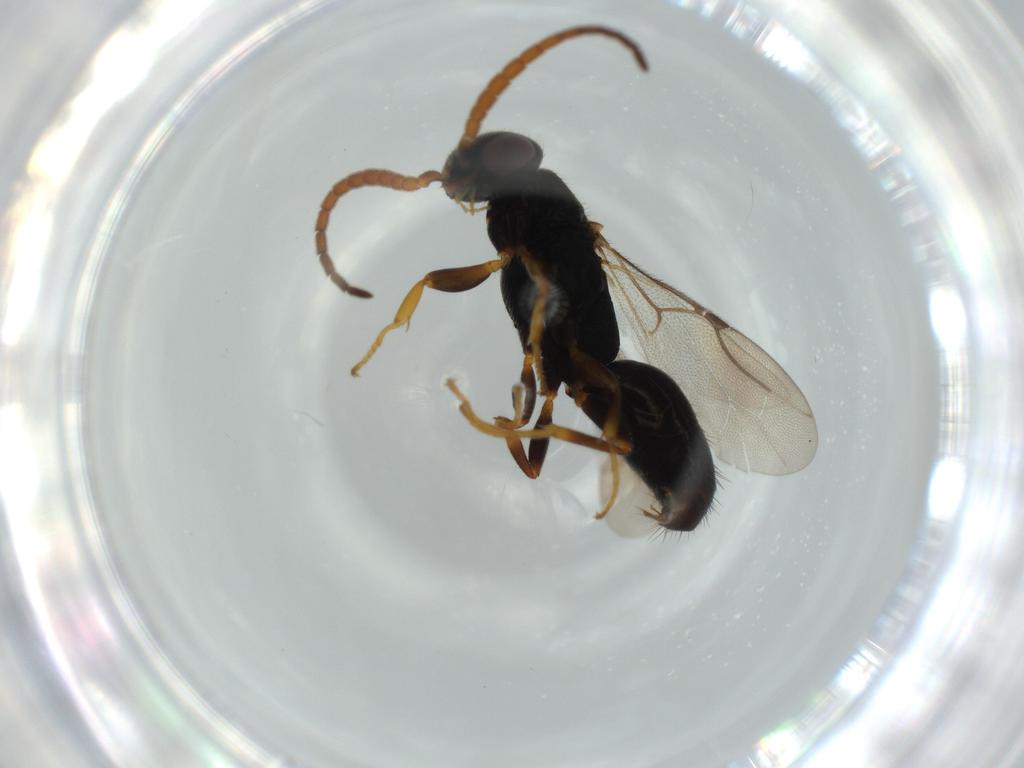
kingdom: Animalia
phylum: Arthropoda
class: Insecta
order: Hymenoptera
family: Bethylidae
